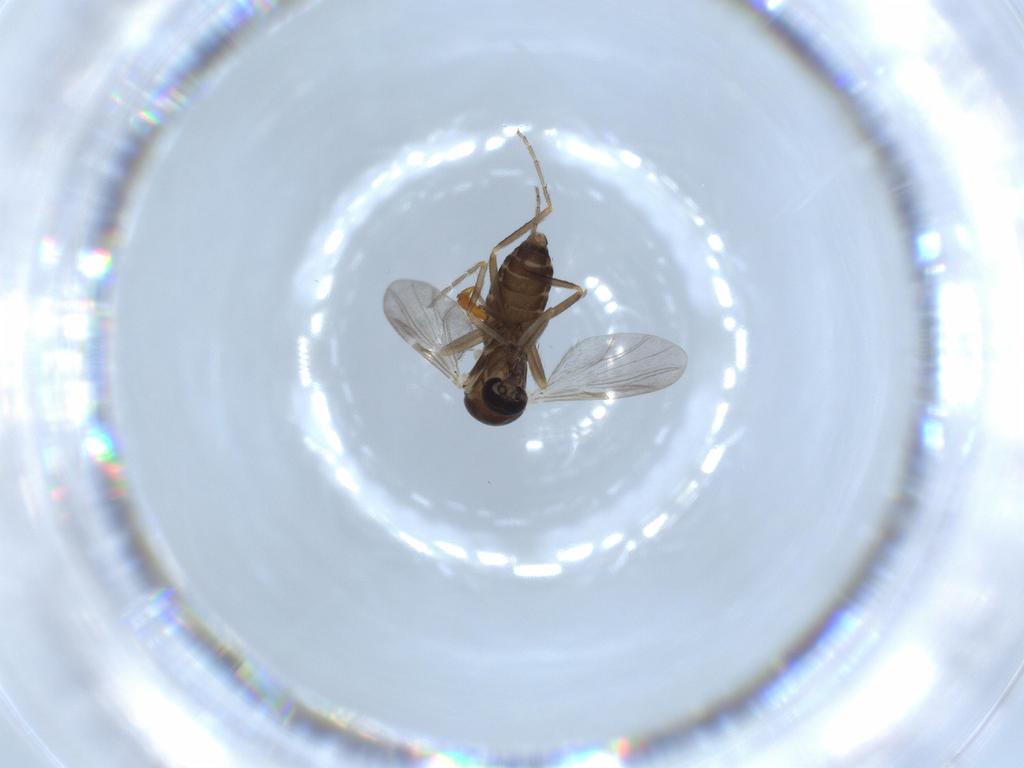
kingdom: Animalia
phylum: Arthropoda
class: Insecta
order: Diptera
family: Ceratopogonidae
